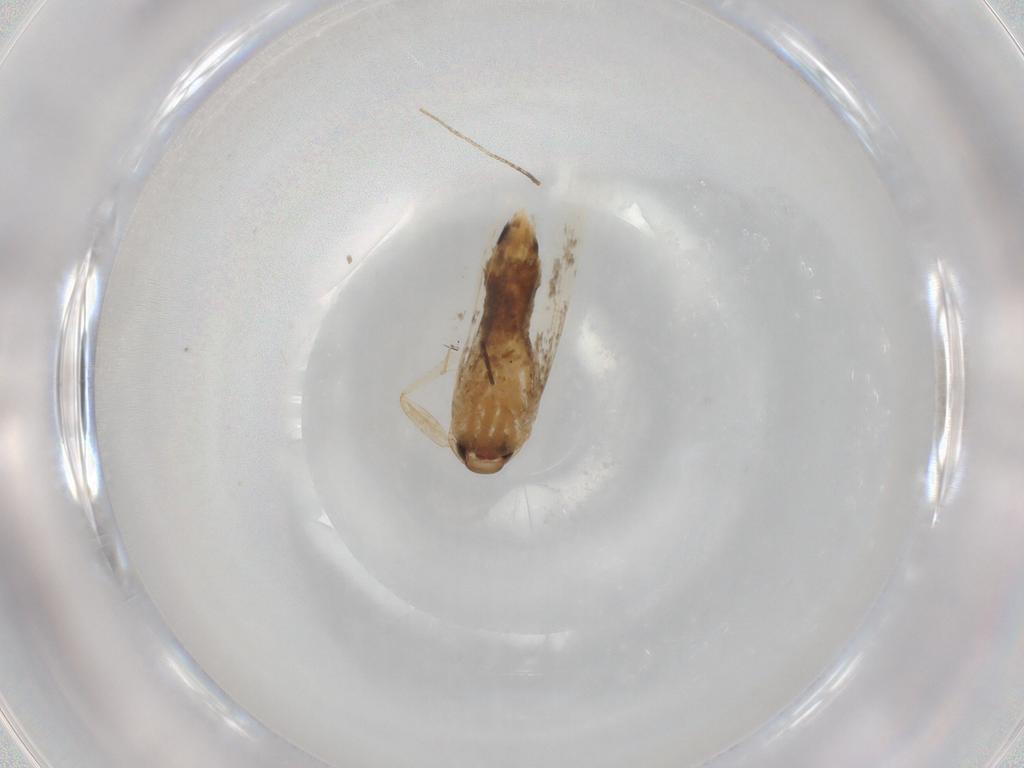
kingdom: Animalia
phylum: Arthropoda
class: Insecta
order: Lepidoptera
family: Cosmopterigidae
